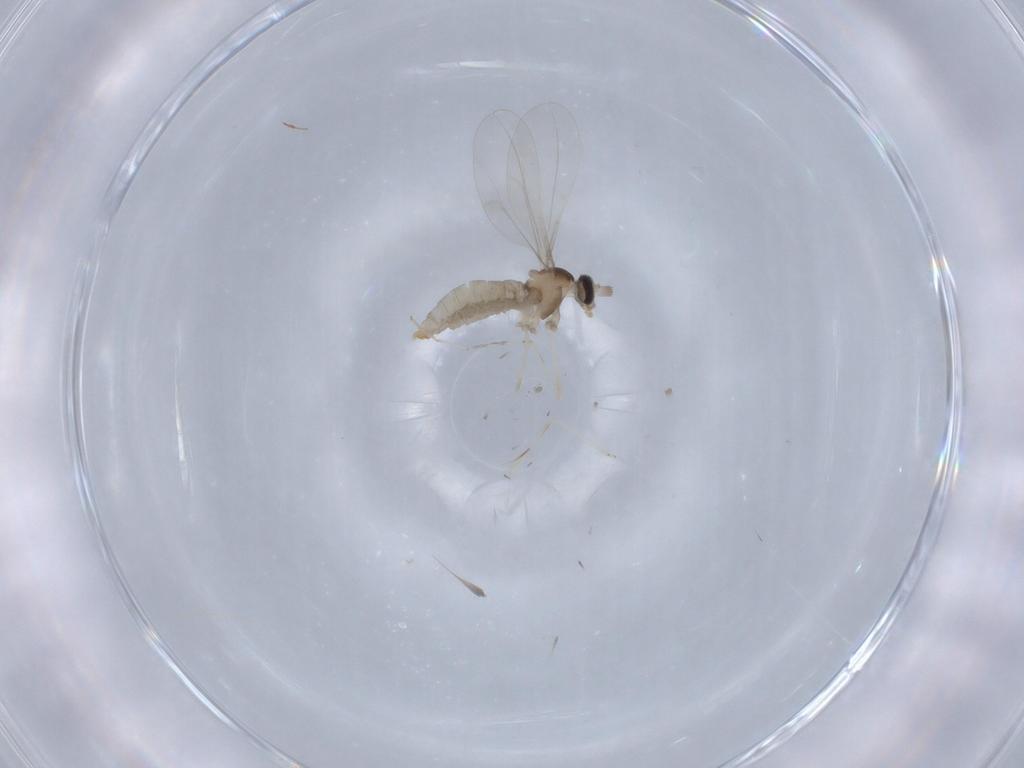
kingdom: Animalia
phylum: Arthropoda
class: Insecta
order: Diptera
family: Cecidomyiidae
